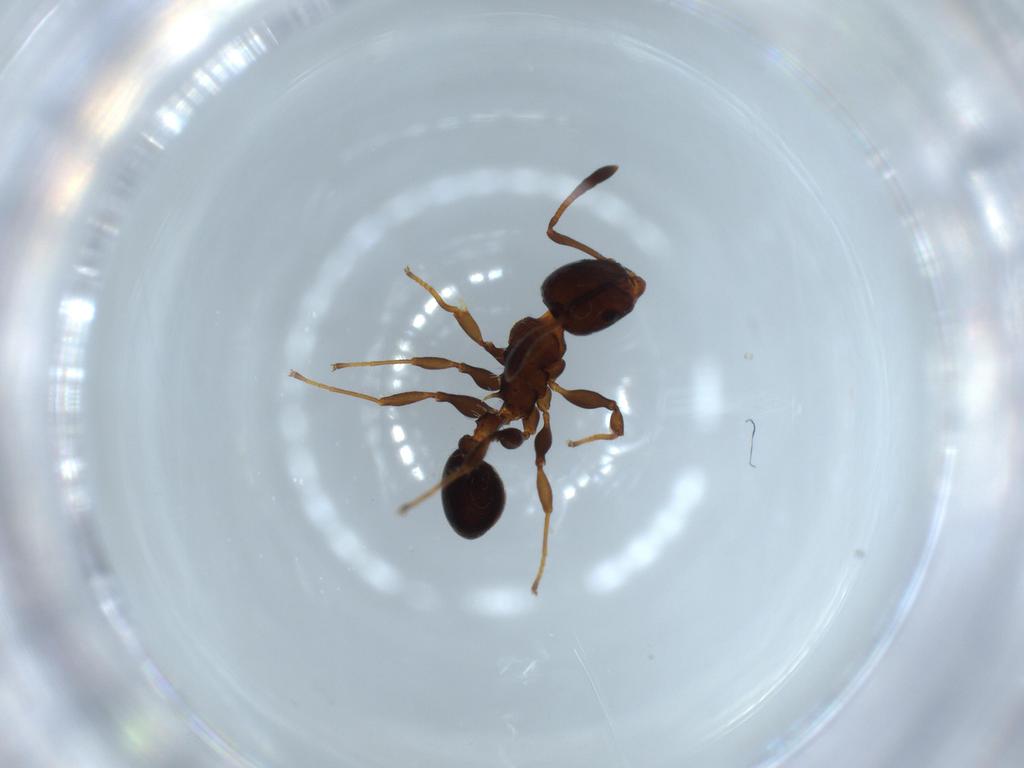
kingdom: Animalia
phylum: Arthropoda
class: Insecta
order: Hymenoptera
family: Formicidae
